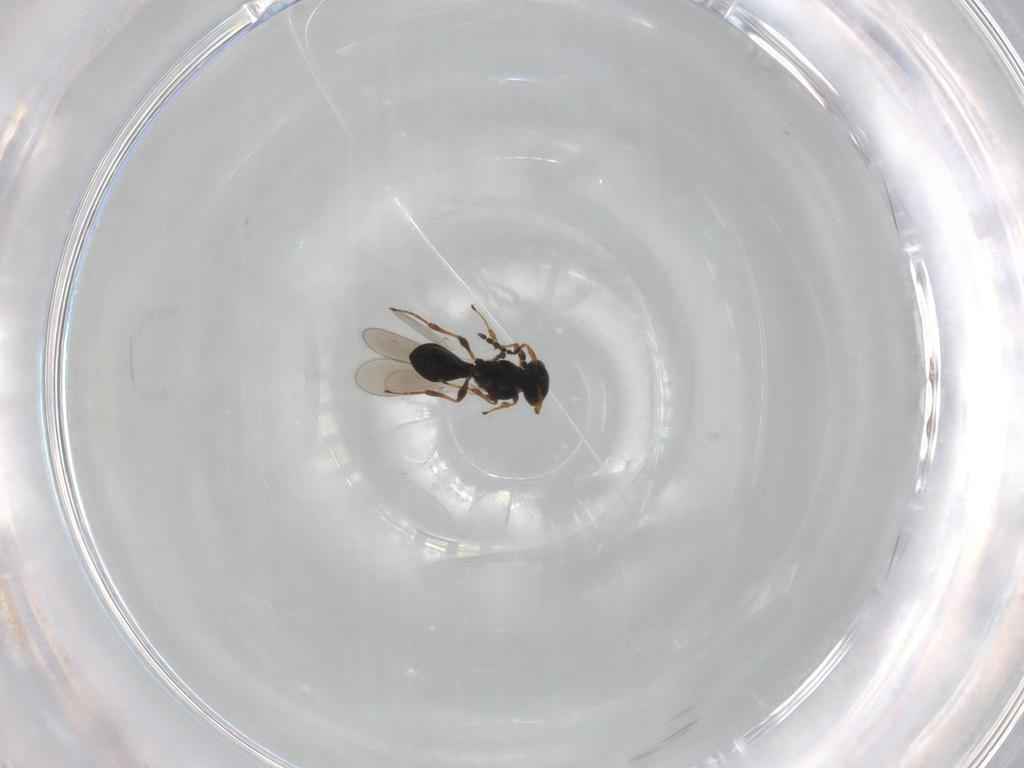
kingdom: Animalia
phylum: Arthropoda
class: Insecta
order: Hymenoptera
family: Platygastridae
